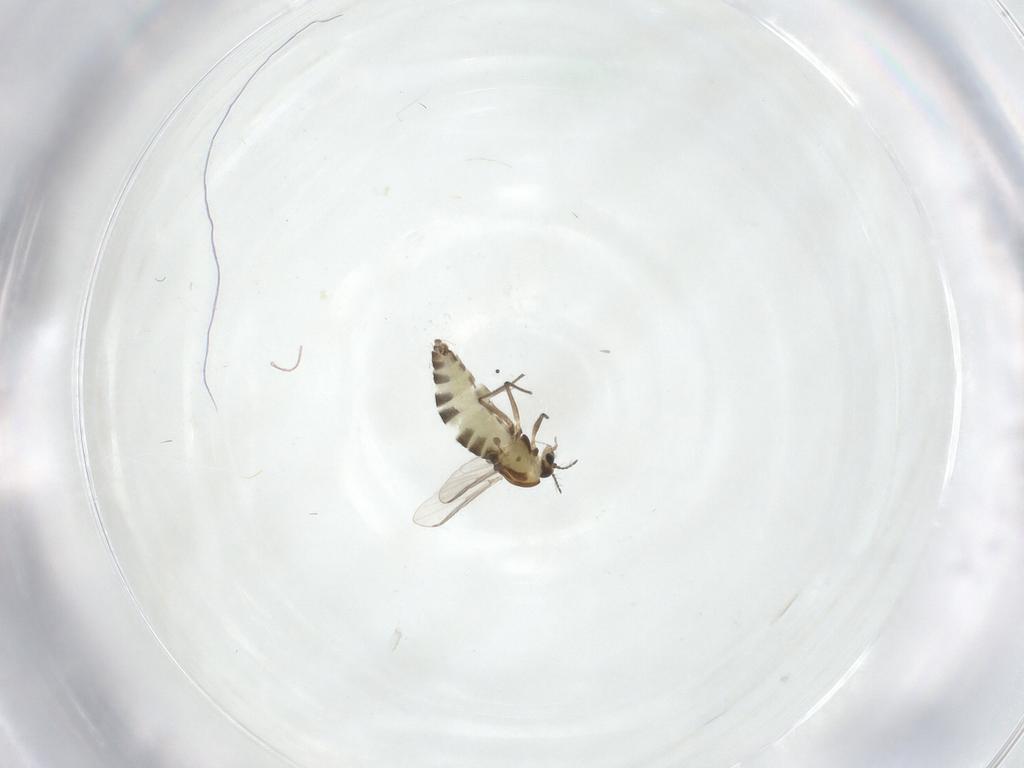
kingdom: Animalia
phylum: Arthropoda
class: Insecta
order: Diptera
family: Chironomidae
